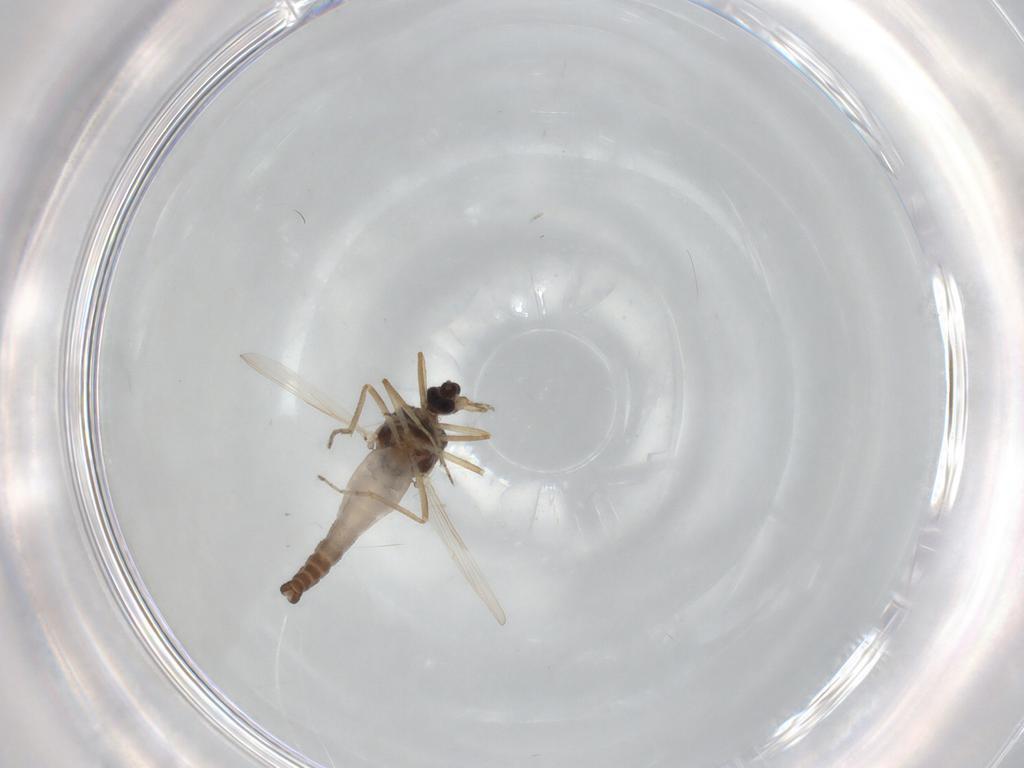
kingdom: Animalia
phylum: Arthropoda
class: Insecta
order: Diptera
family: Ceratopogonidae
